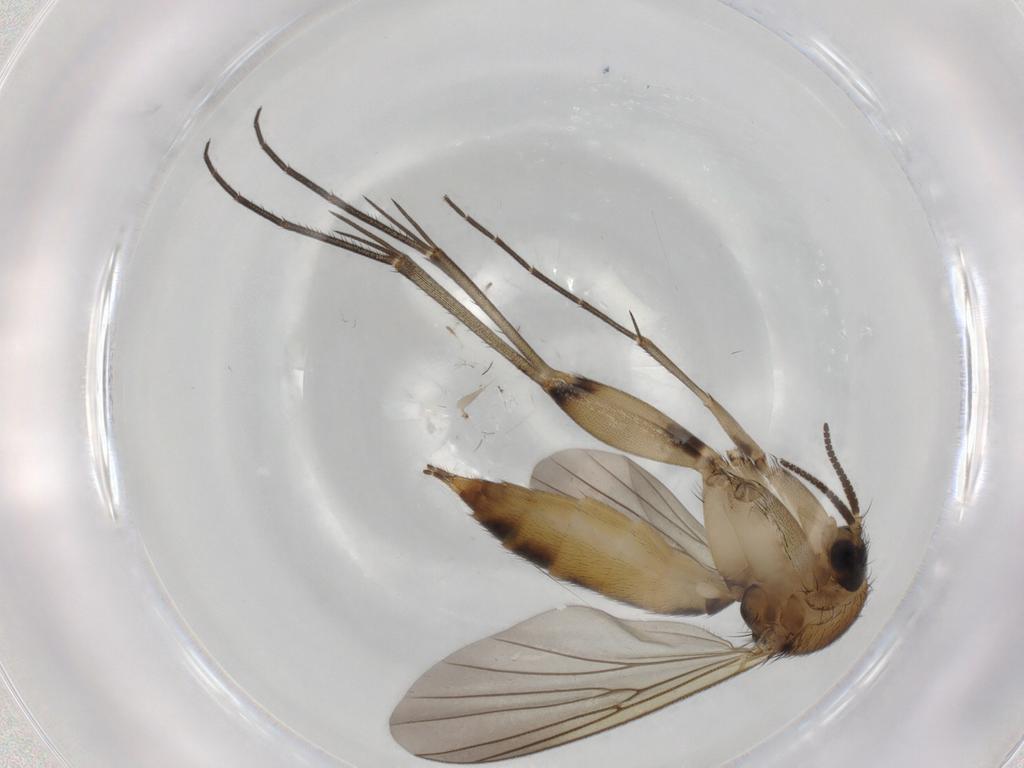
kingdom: Animalia
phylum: Arthropoda
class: Insecta
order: Diptera
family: Mycetophilidae
